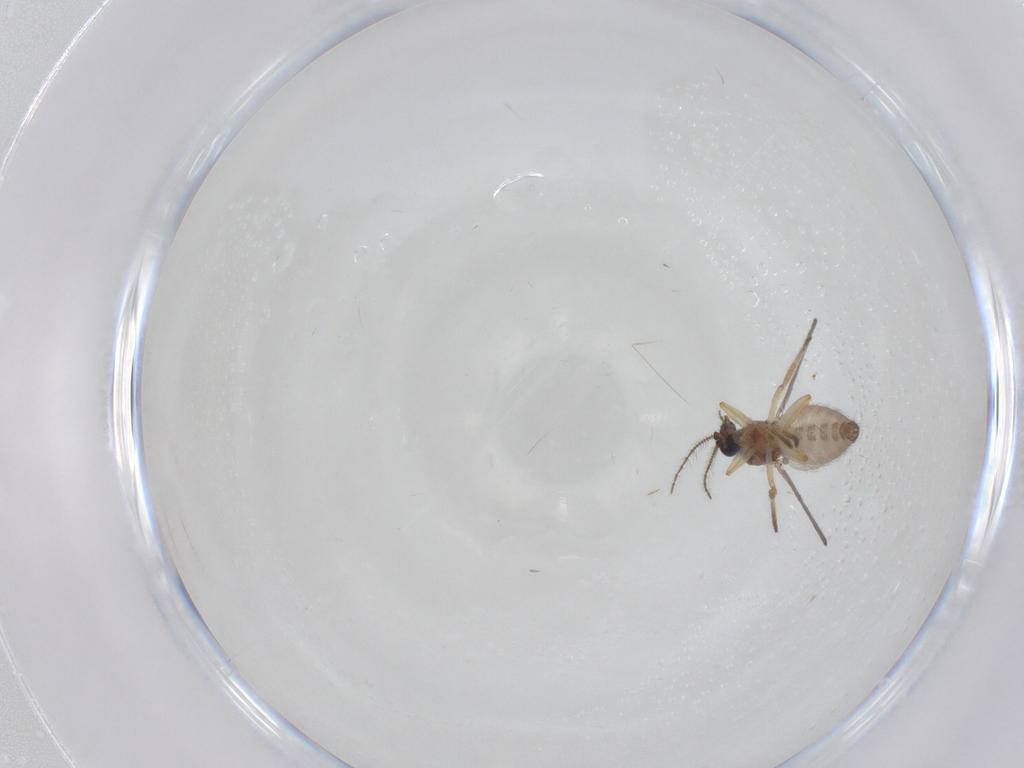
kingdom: Animalia
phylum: Arthropoda
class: Insecta
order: Diptera
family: Ceratopogonidae
